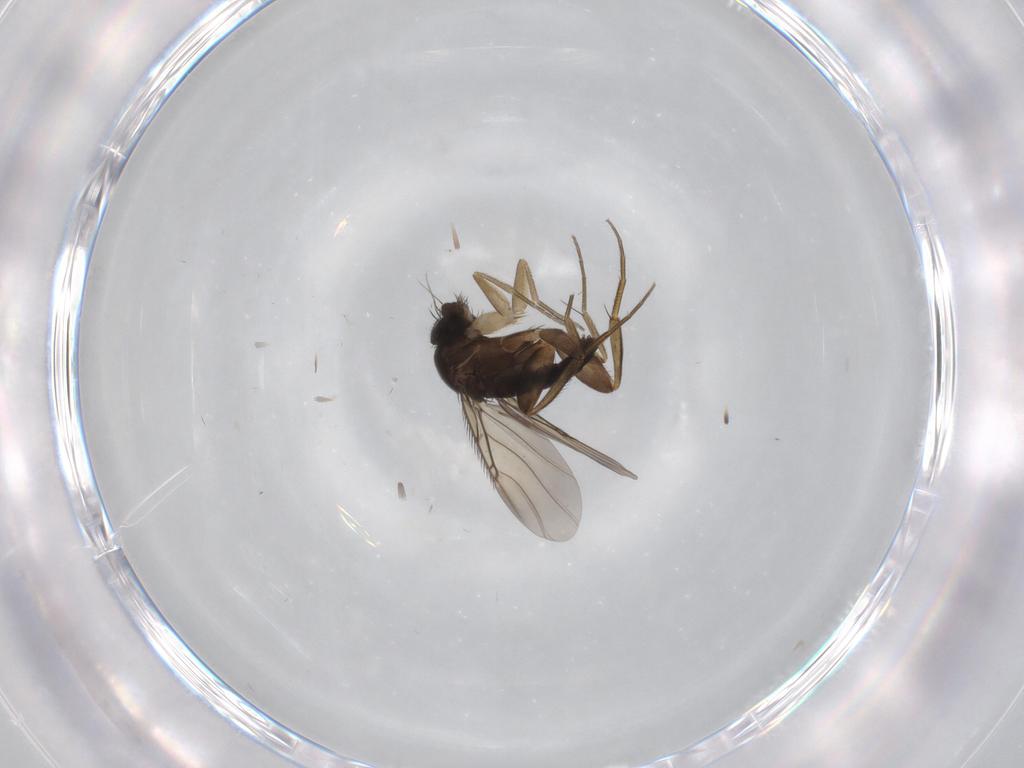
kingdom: Animalia
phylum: Arthropoda
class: Insecta
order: Diptera
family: Phoridae
